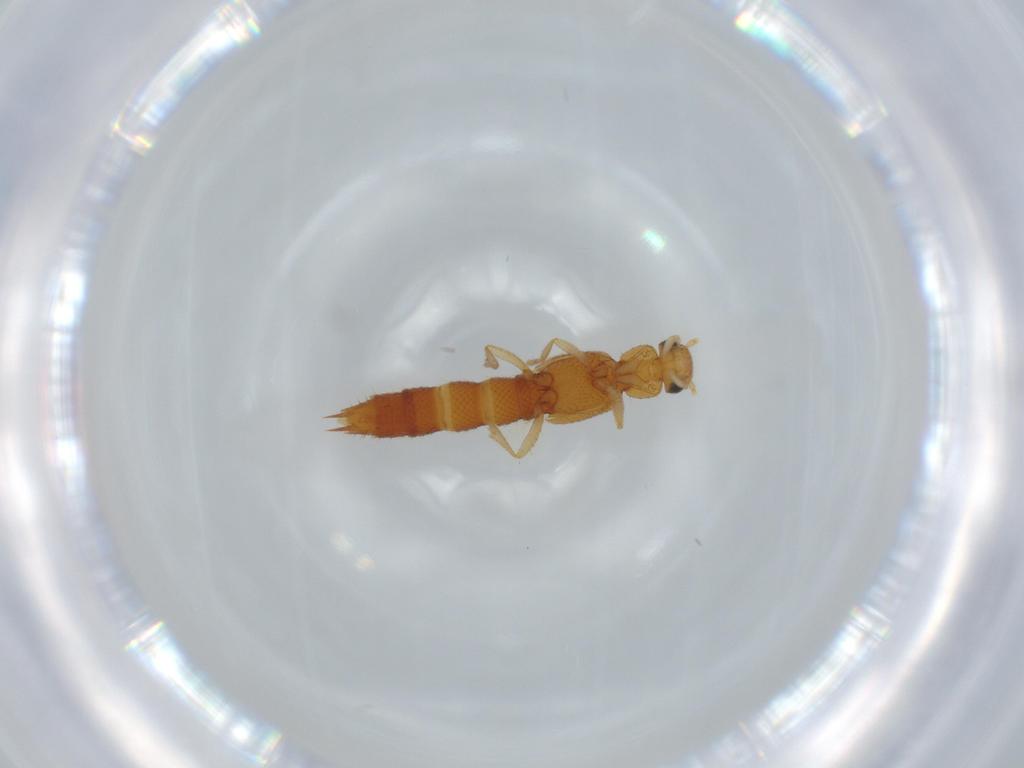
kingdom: Animalia
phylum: Arthropoda
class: Insecta
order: Coleoptera
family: Staphylinidae
